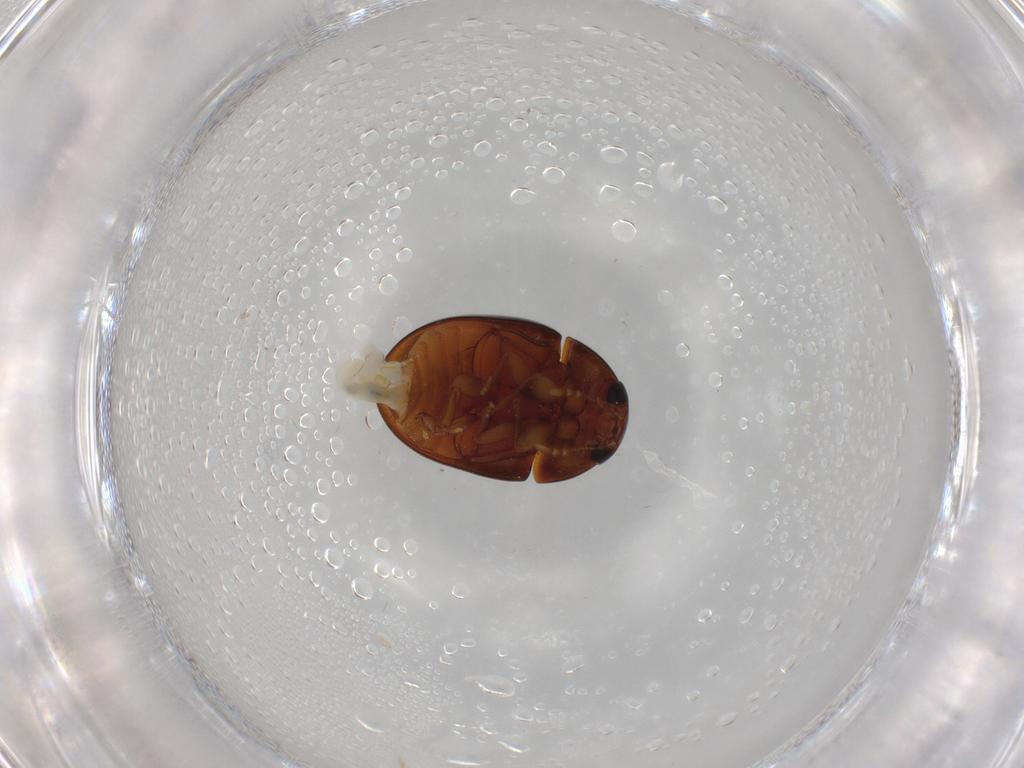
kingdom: Animalia
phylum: Arthropoda
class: Insecta
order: Coleoptera
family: Phalacridae
